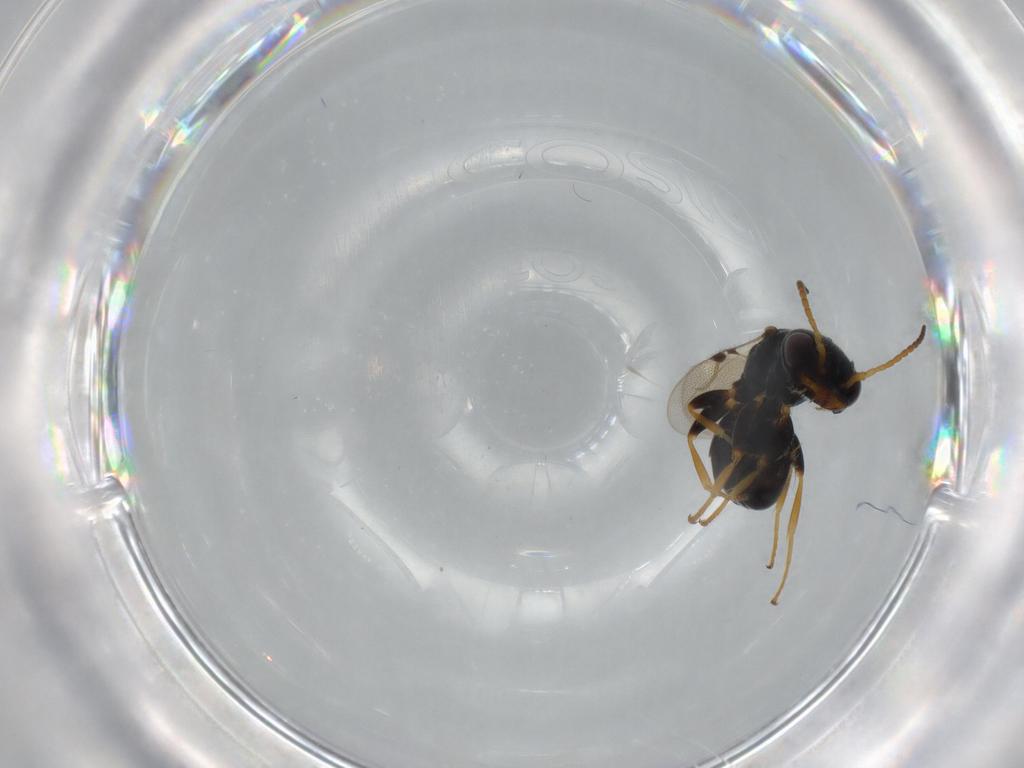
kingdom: Animalia
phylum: Arthropoda
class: Insecta
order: Hymenoptera
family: Bethylidae
